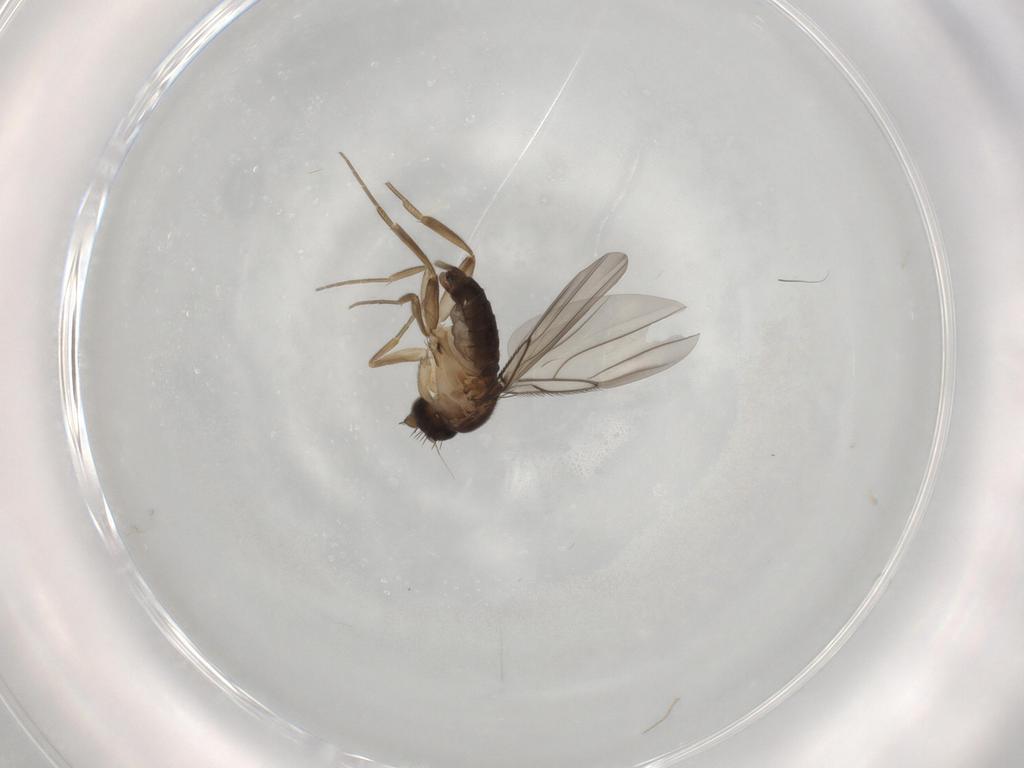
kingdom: Animalia
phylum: Arthropoda
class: Insecta
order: Diptera
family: Phoridae
